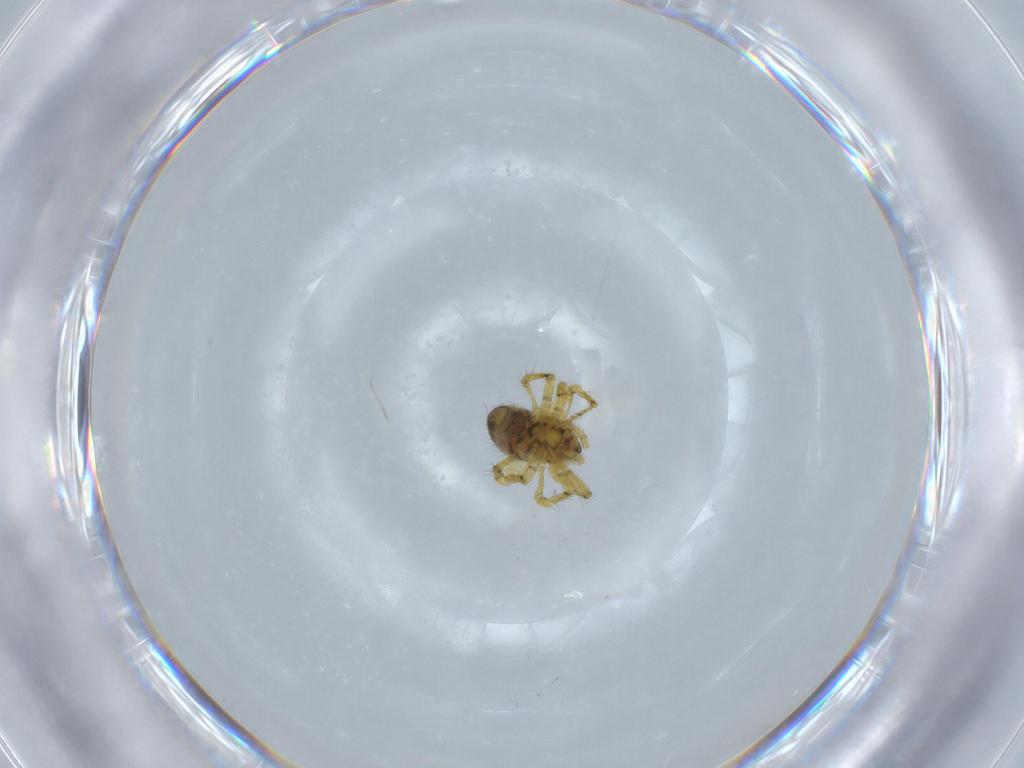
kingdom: Animalia
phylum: Arthropoda
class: Arachnida
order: Araneae
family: Theridiidae
